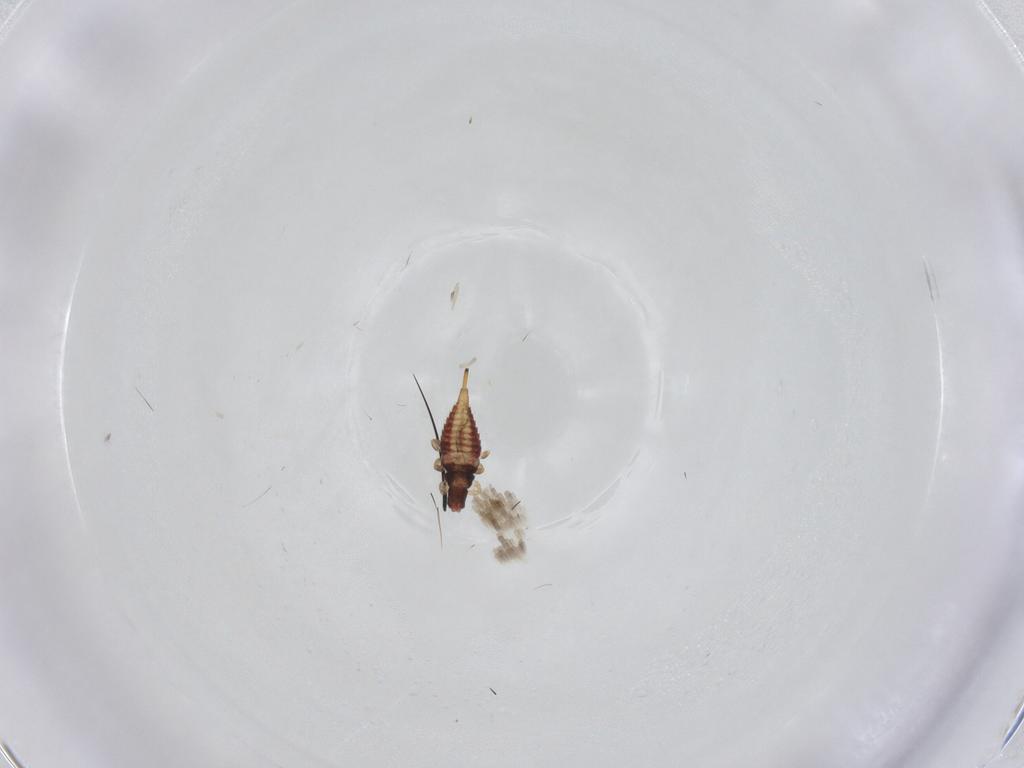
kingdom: Animalia
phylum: Arthropoda
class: Insecta
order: Thysanoptera
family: Phlaeothripidae
